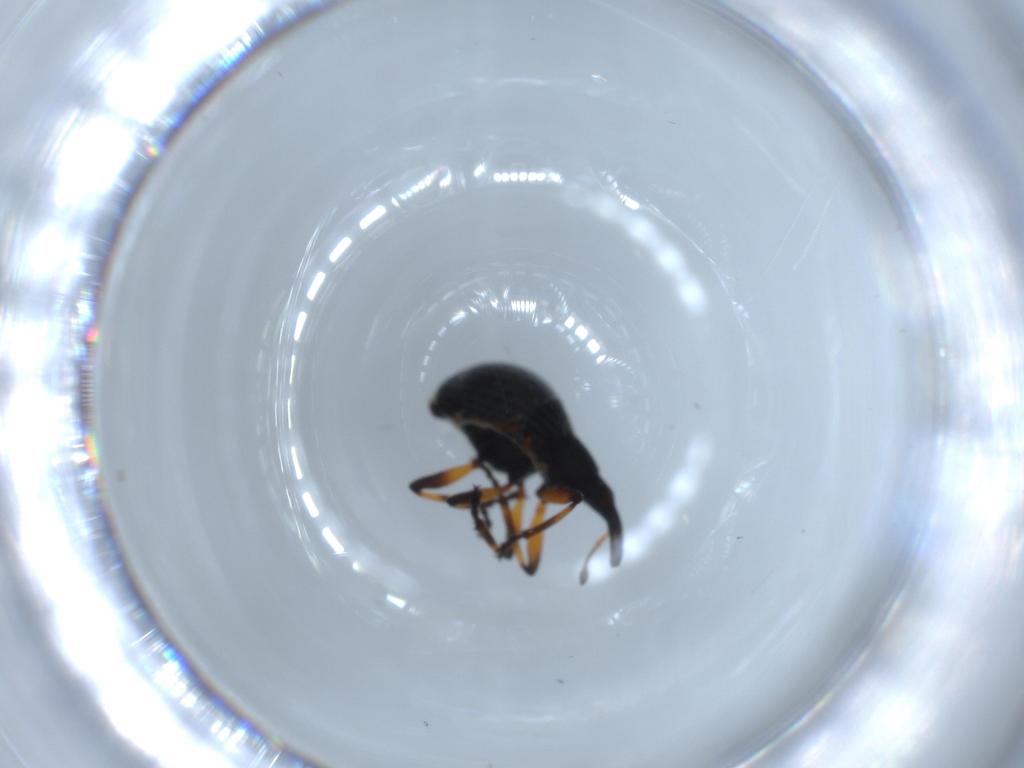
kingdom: Animalia
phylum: Arthropoda
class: Insecta
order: Coleoptera
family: Brentidae
